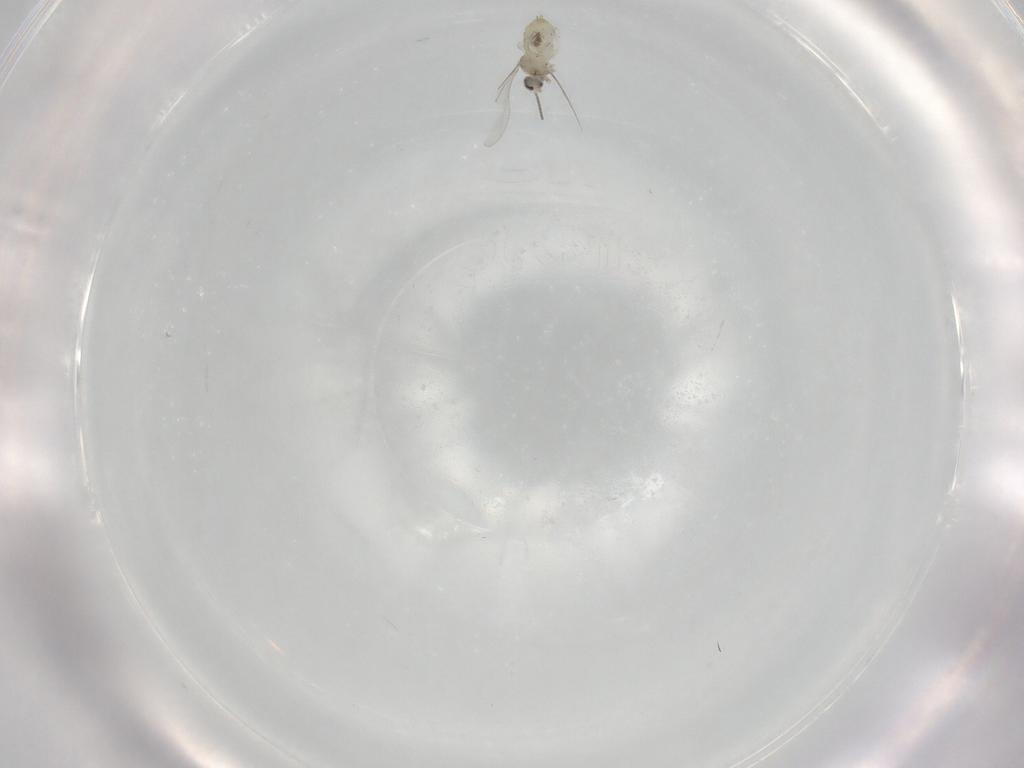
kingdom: Animalia
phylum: Arthropoda
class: Insecta
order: Diptera
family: Cecidomyiidae
